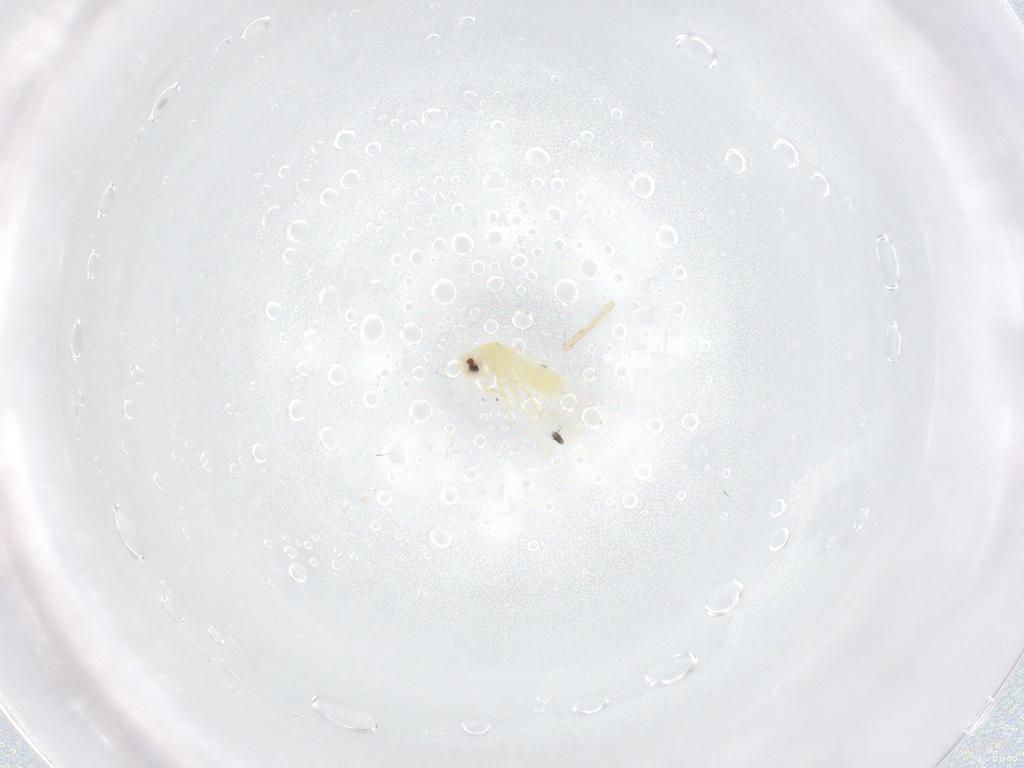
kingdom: Animalia
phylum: Arthropoda
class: Insecta
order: Hemiptera
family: Aleyrodidae
